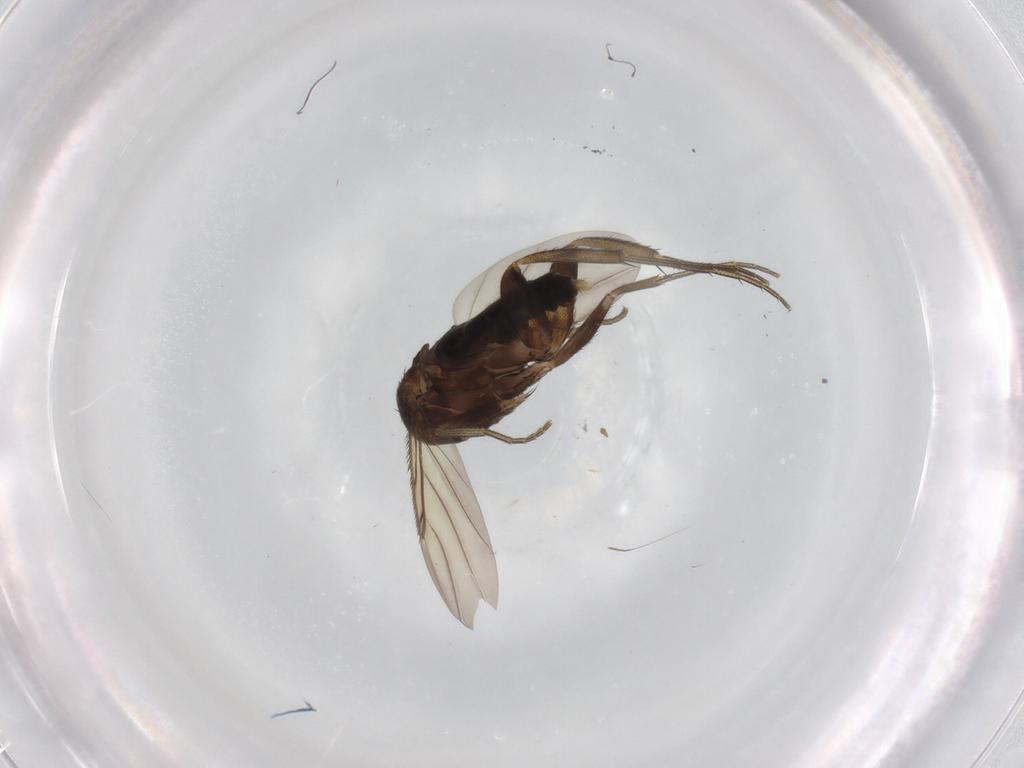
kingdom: Animalia
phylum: Arthropoda
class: Insecta
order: Diptera
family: Phoridae
